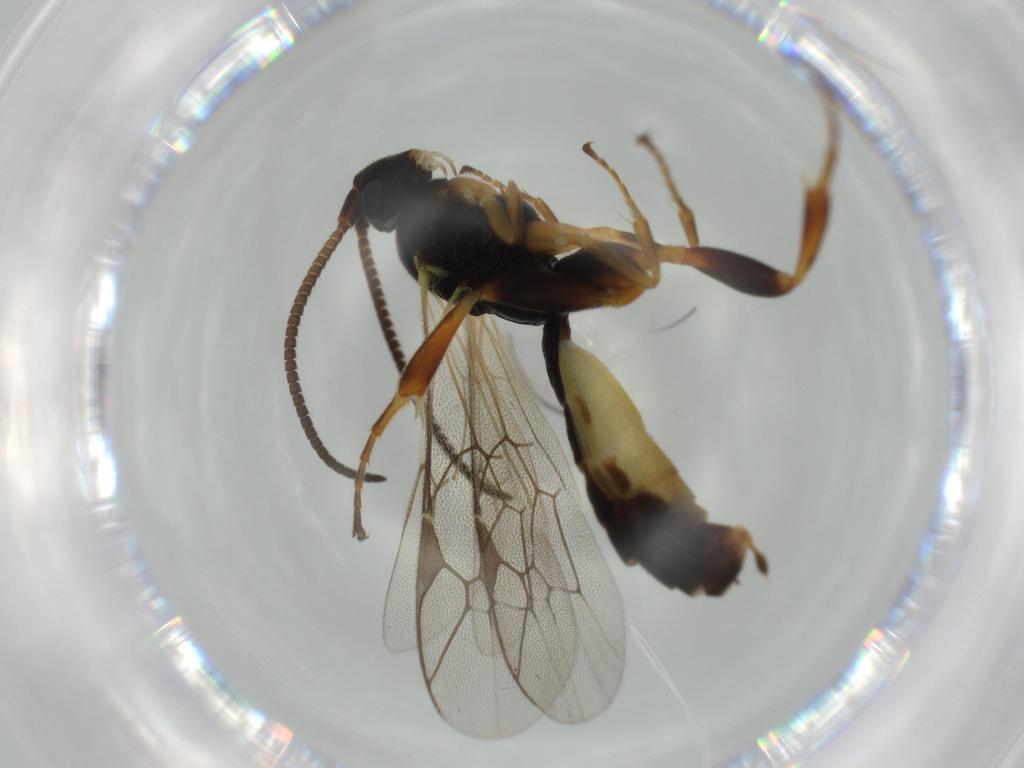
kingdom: Animalia
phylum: Arthropoda
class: Insecta
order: Hymenoptera
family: Ichneumonidae
